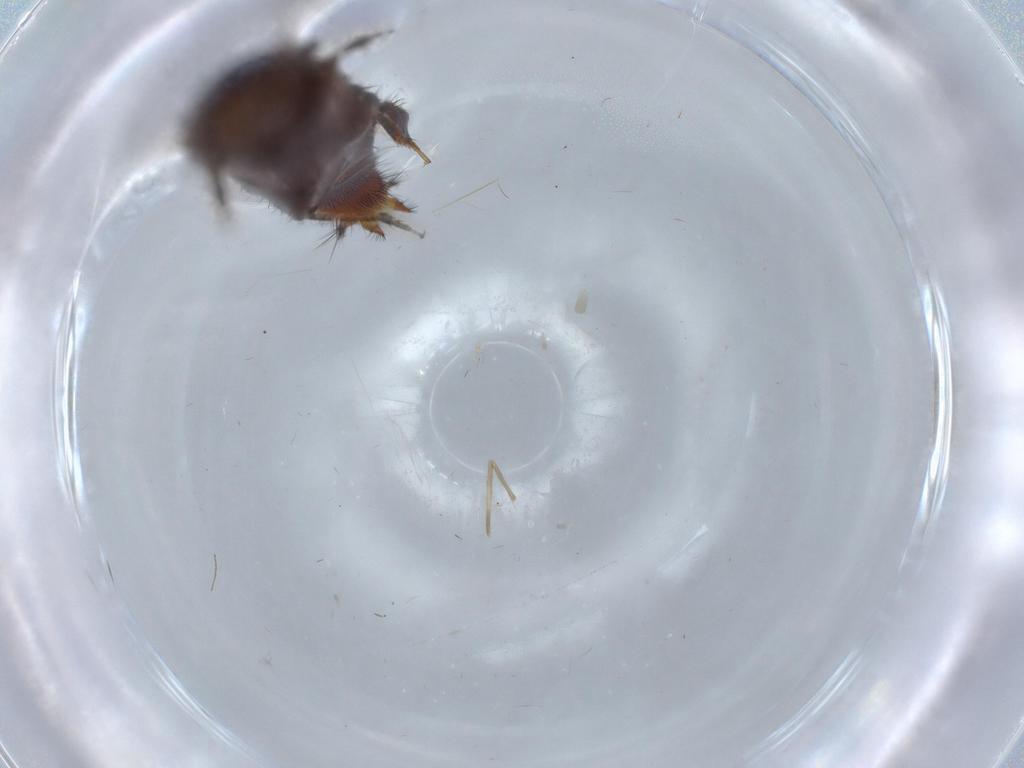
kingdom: Animalia
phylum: Arthropoda
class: Insecta
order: Coleoptera
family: Staphylinidae
